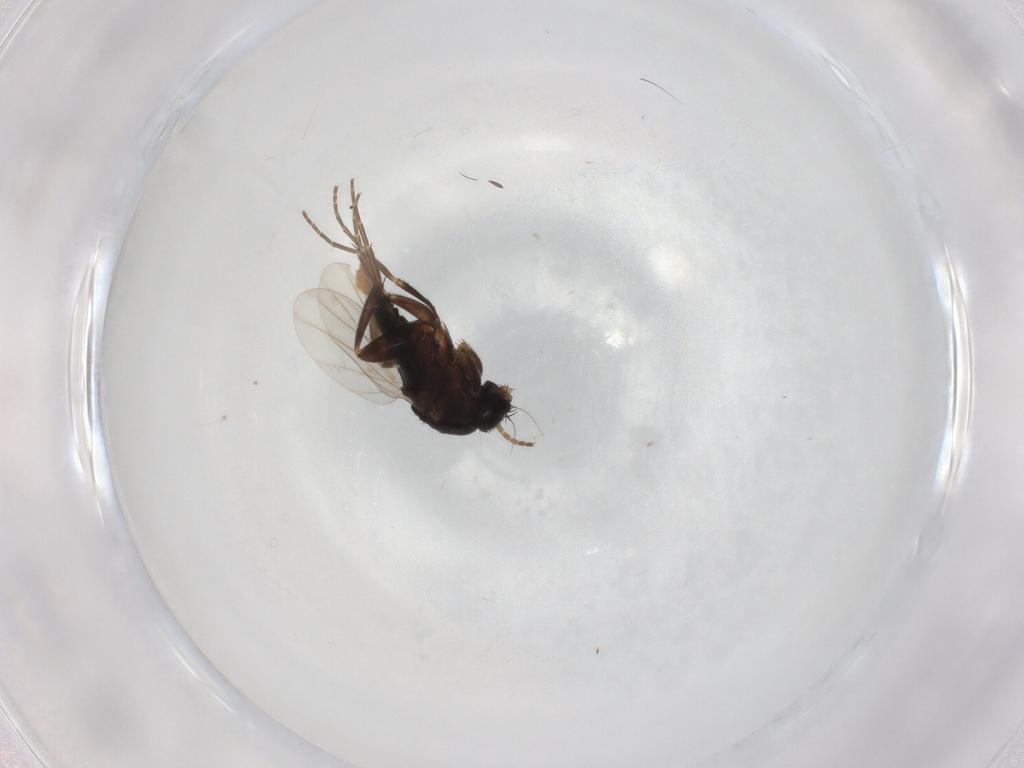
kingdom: Animalia
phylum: Arthropoda
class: Insecta
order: Diptera
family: Phoridae
